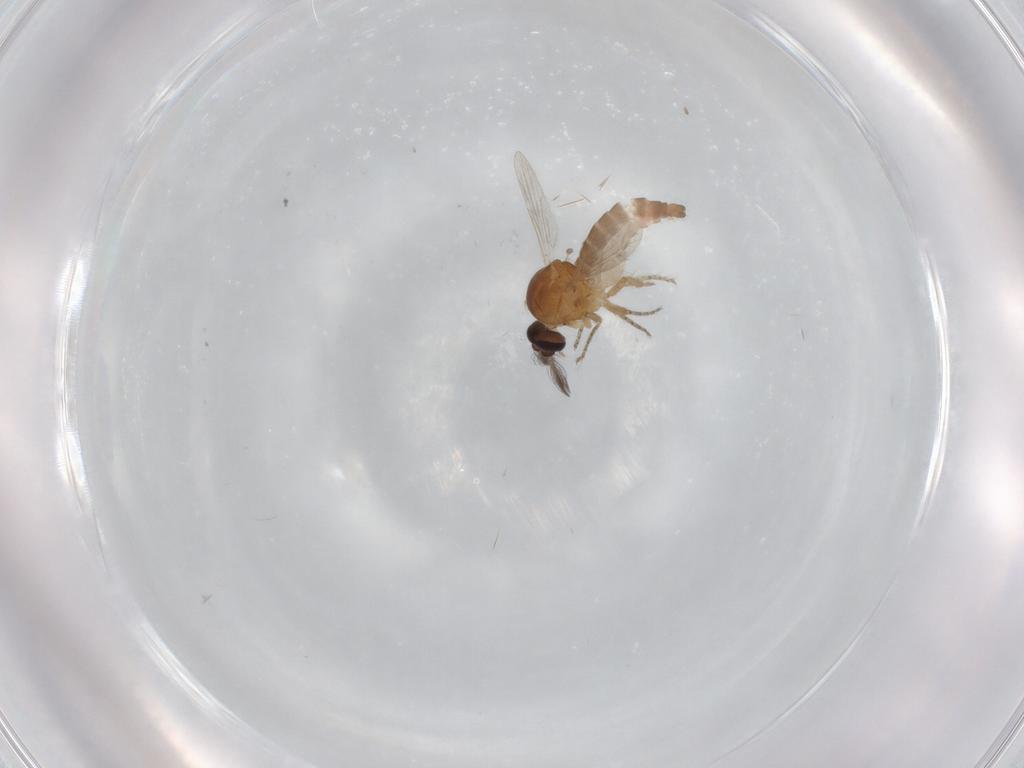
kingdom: Animalia
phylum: Arthropoda
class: Insecta
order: Diptera
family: Ceratopogonidae
